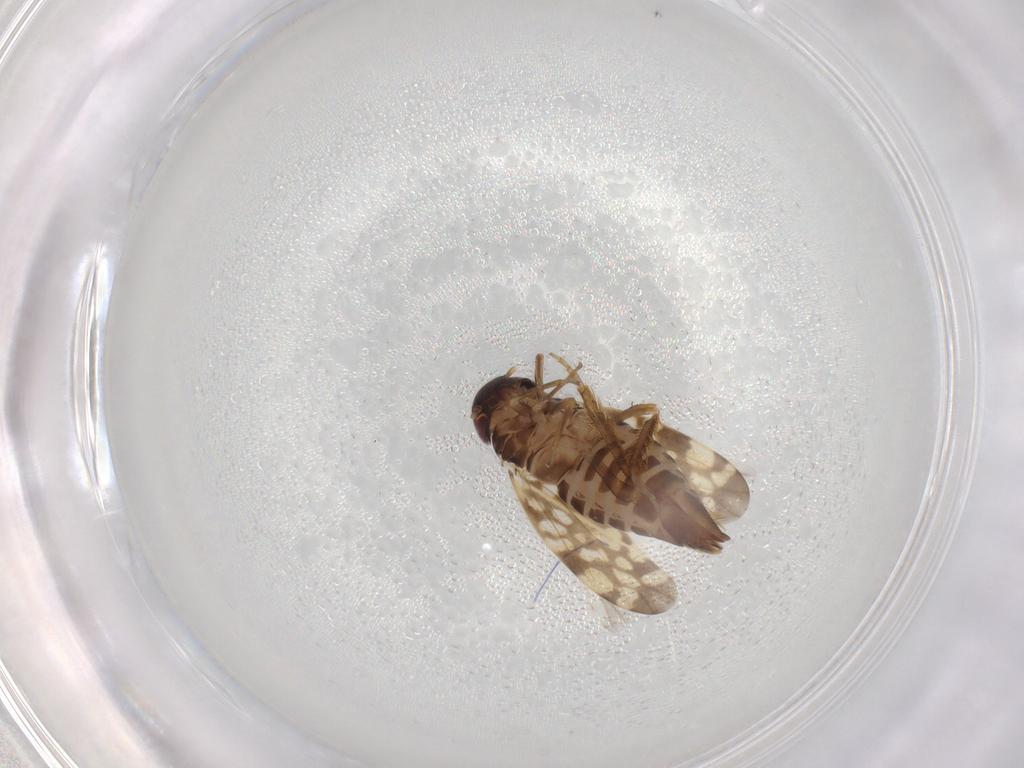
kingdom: Animalia
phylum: Arthropoda
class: Insecta
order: Hemiptera
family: Cicadellidae
